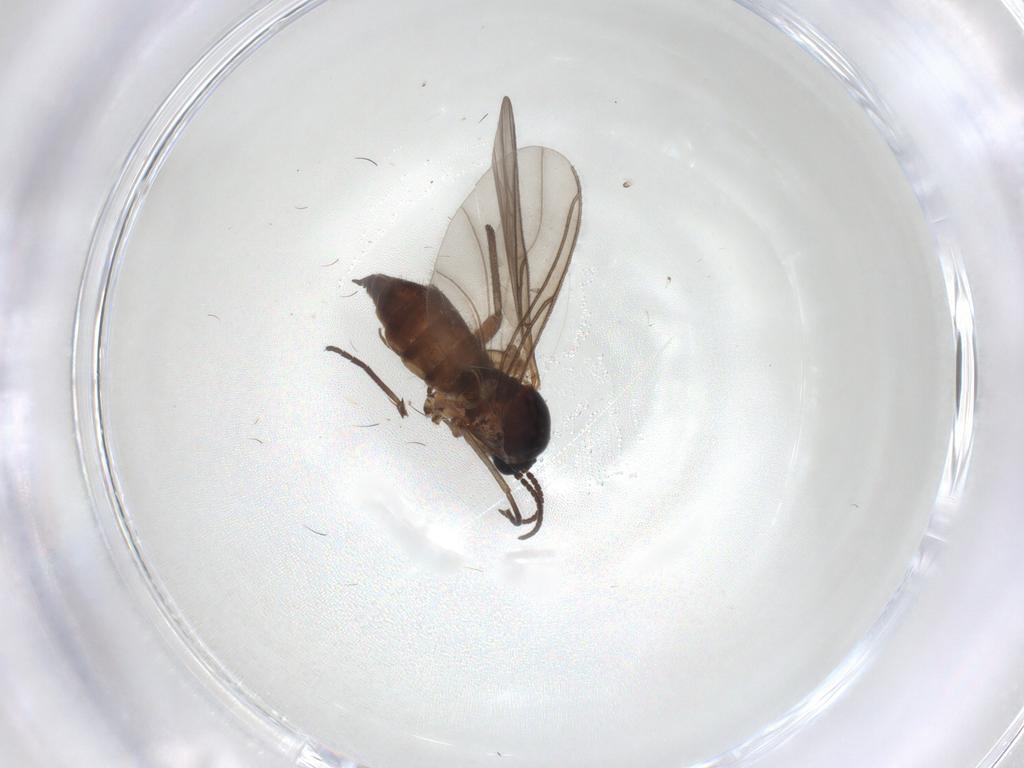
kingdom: Animalia
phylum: Arthropoda
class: Insecta
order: Diptera
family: Sciaridae
